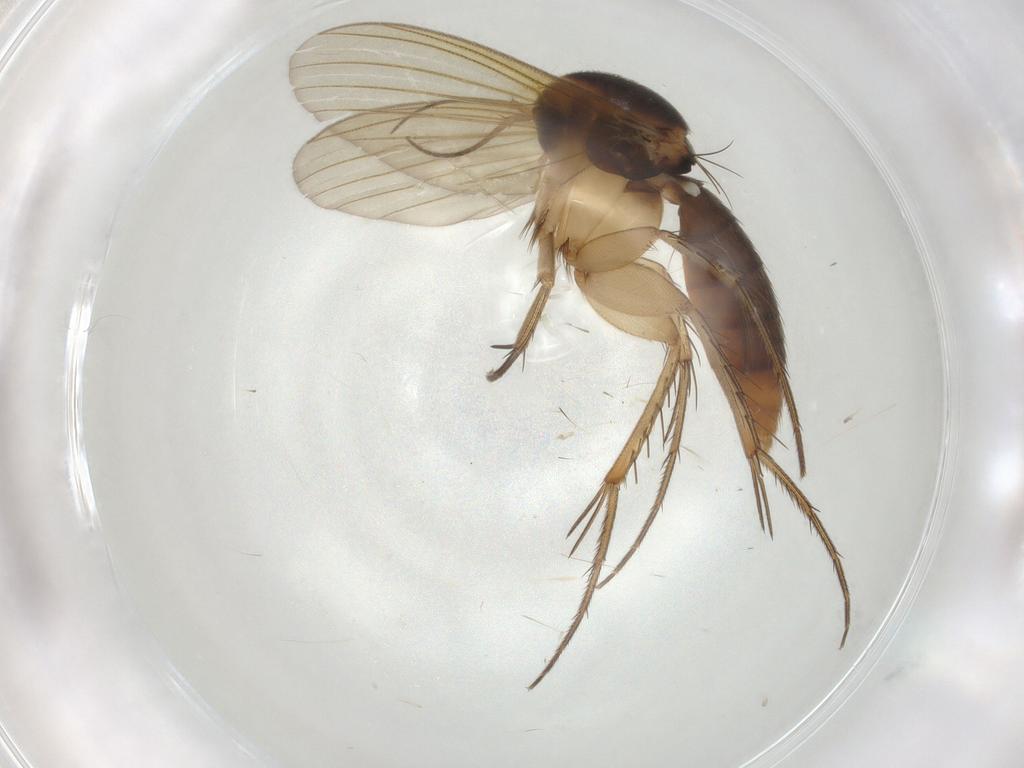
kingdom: Animalia
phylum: Arthropoda
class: Insecta
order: Diptera
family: Mycetophilidae
